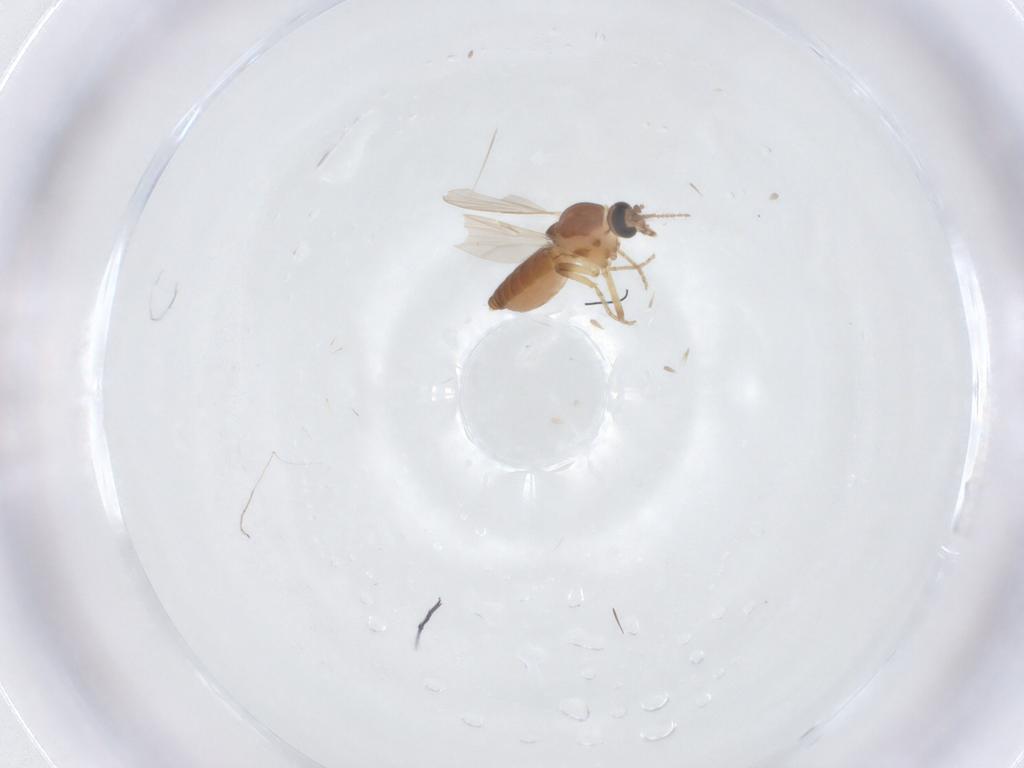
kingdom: Animalia
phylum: Arthropoda
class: Insecta
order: Diptera
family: Ceratopogonidae
